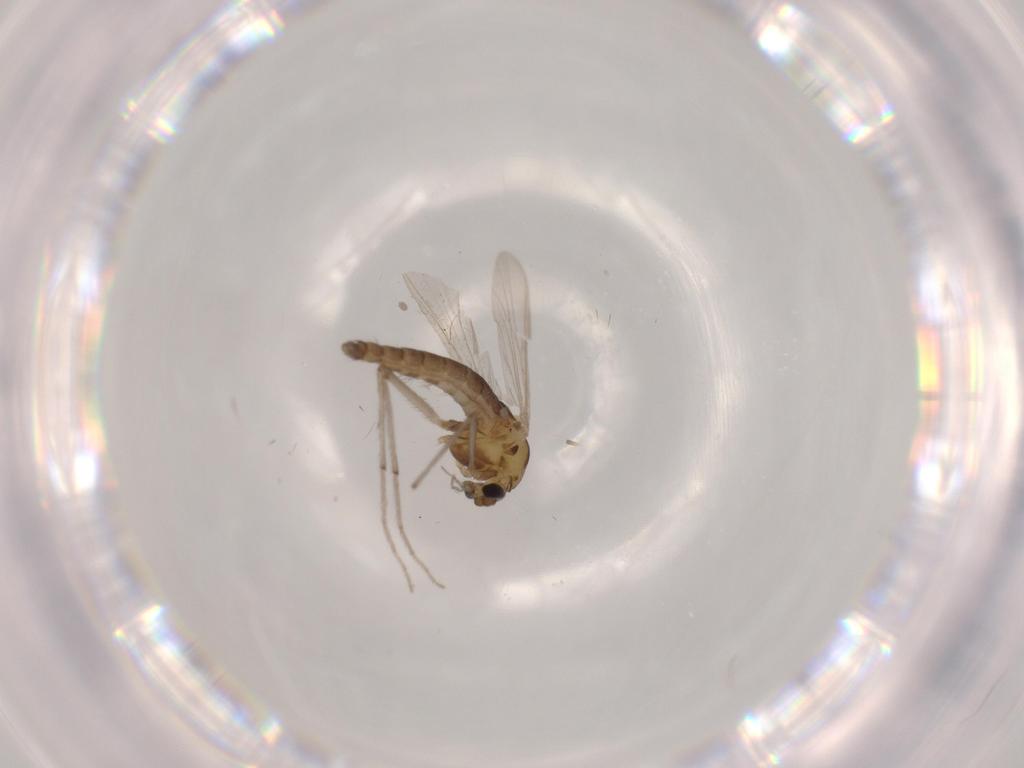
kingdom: Animalia
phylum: Arthropoda
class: Insecta
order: Diptera
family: Cecidomyiidae
